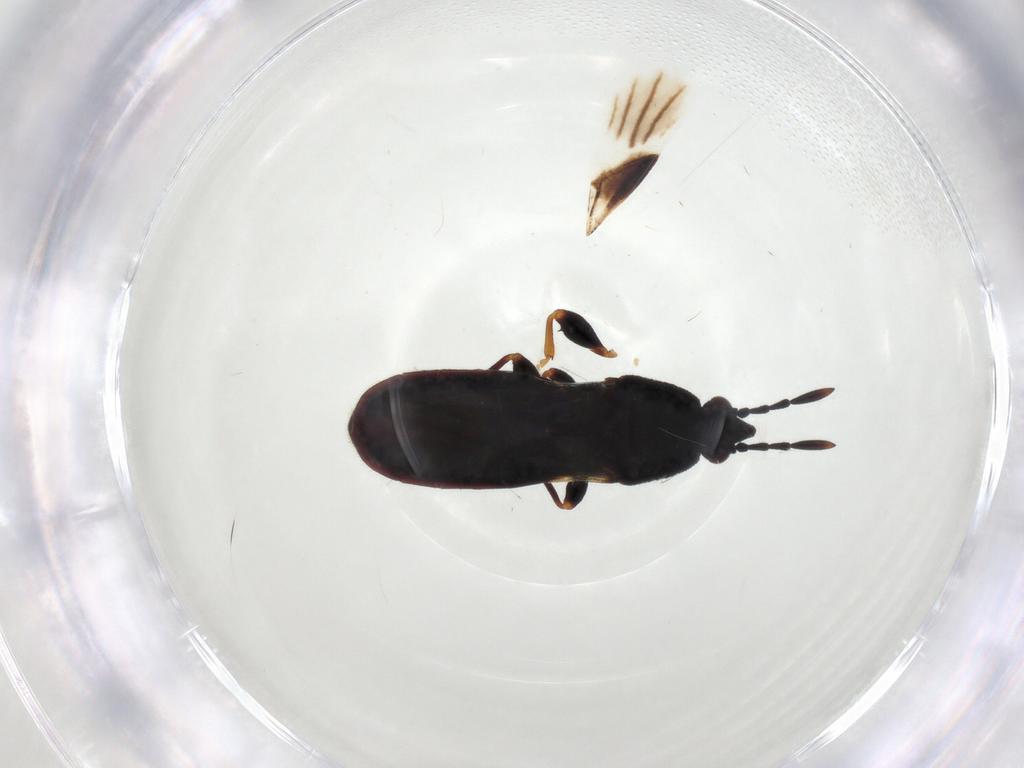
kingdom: Animalia
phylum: Arthropoda
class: Insecta
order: Hemiptera
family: Blissidae
